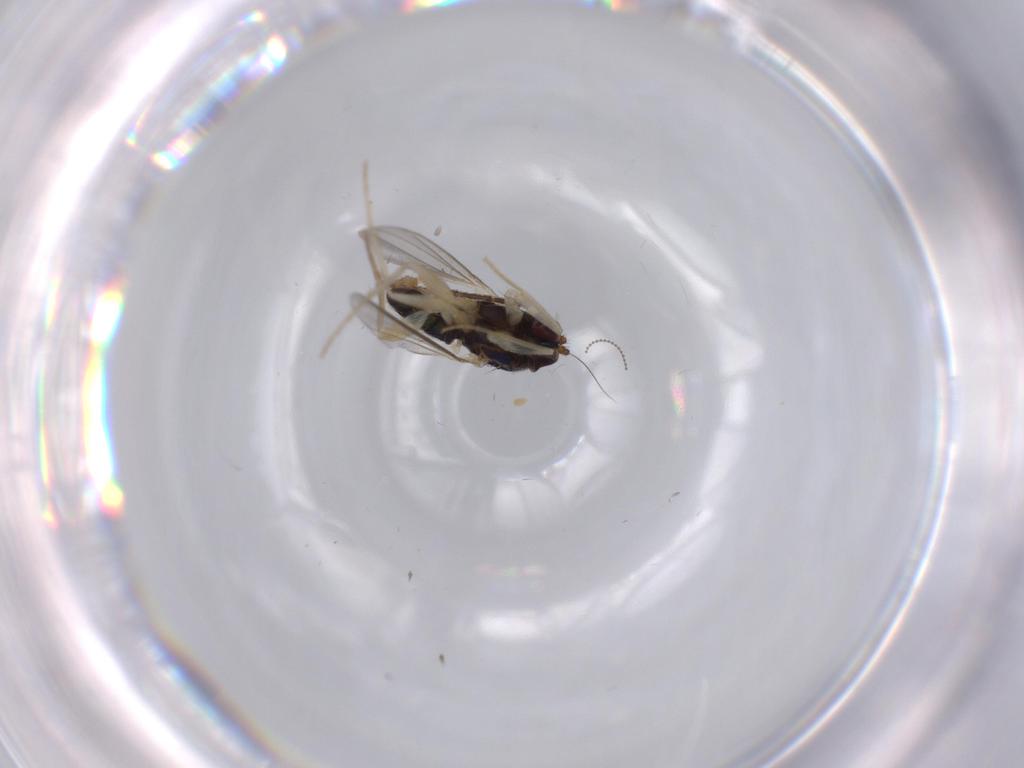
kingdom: Animalia
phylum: Arthropoda
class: Insecta
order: Diptera
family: Dolichopodidae
